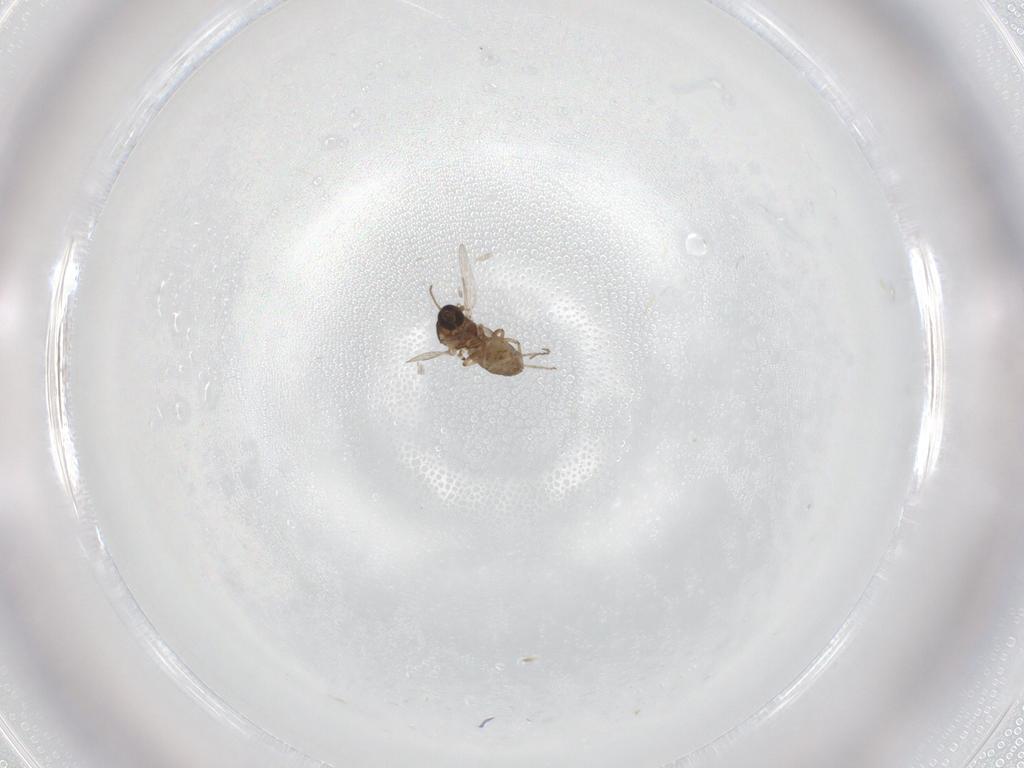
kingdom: Animalia
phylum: Arthropoda
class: Insecta
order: Diptera
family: Ceratopogonidae
